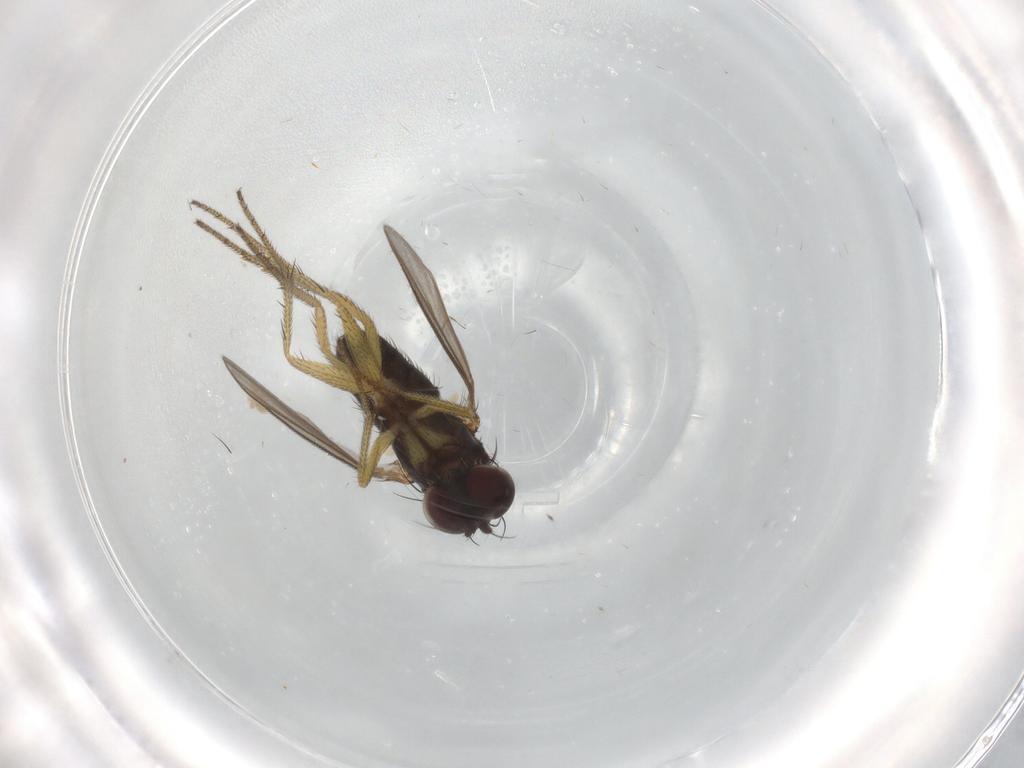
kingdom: Animalia
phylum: Arthropoda
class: Insecta
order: Diptera
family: Chironomidae
